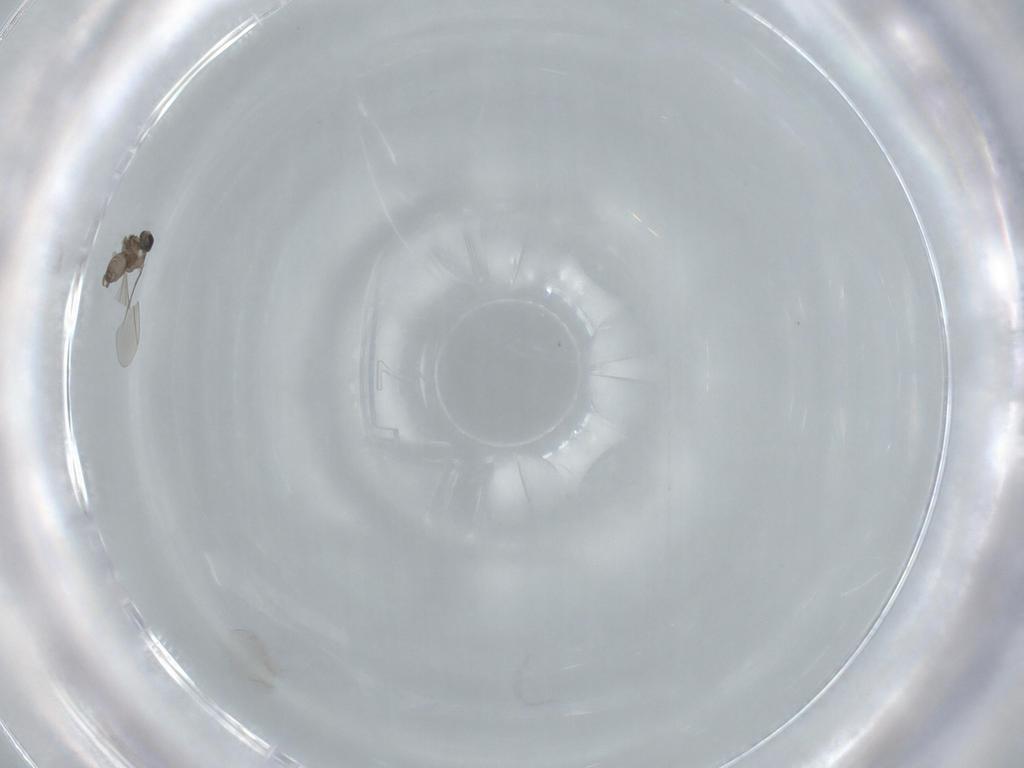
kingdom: Animalia
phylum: Arthropoda
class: Insecta
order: Diptera
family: Cecidomyiidae
